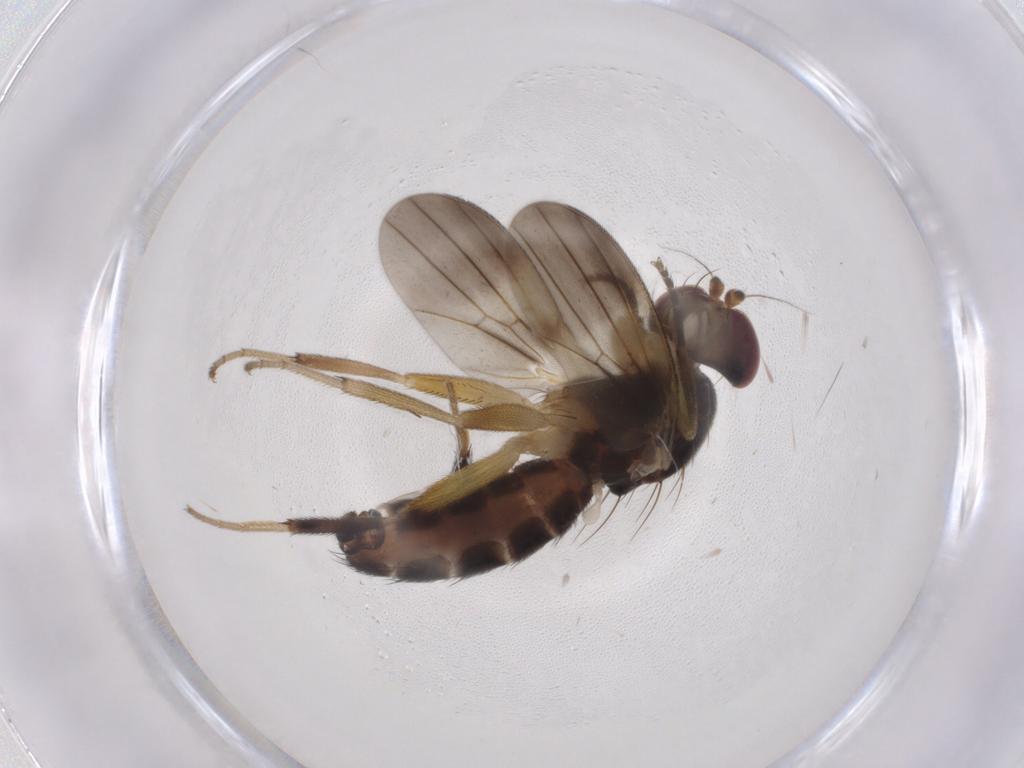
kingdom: Animalia
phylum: Arthropoda
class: Insecta
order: Diptera
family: Clusiidae
